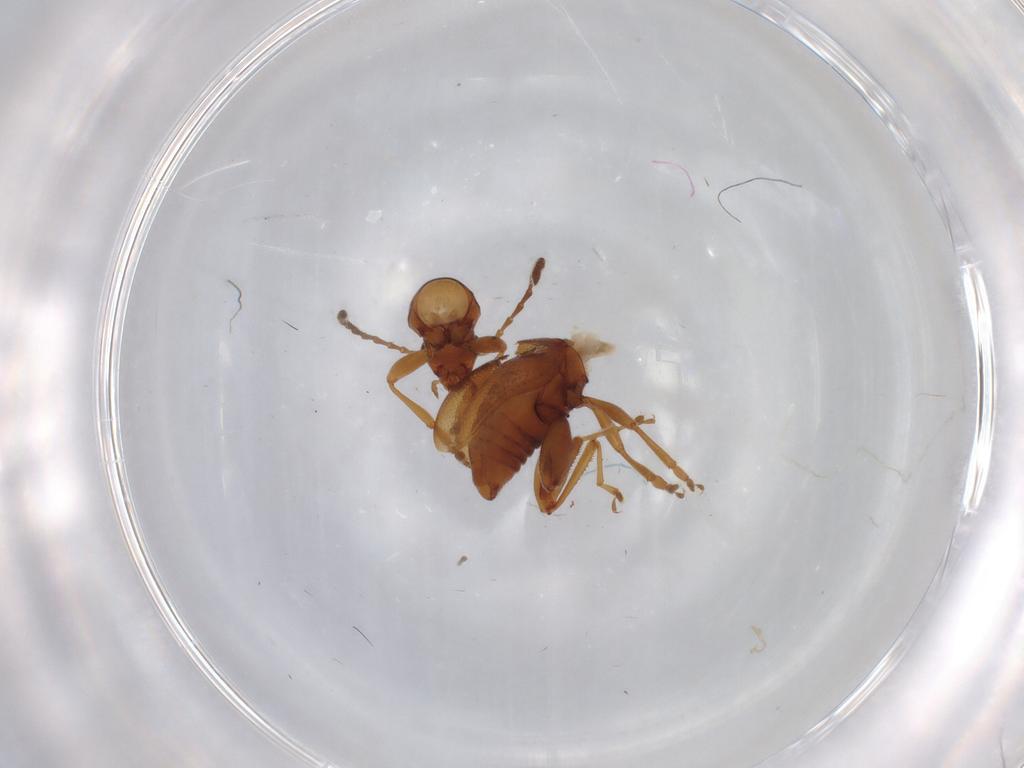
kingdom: Animalia
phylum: Arthropoda
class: Insecta
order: Coleoptera
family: Chrysomelidae
